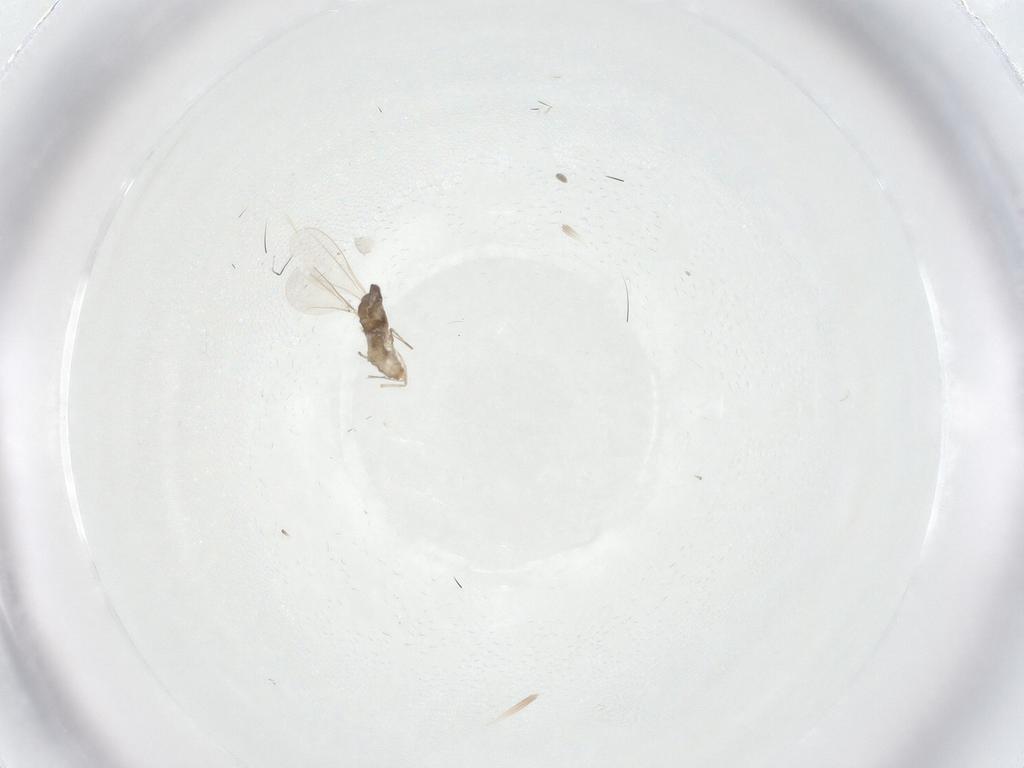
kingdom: Animalia
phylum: Arthropoda
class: Insecta
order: Diptera
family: Cecidomyiidae
